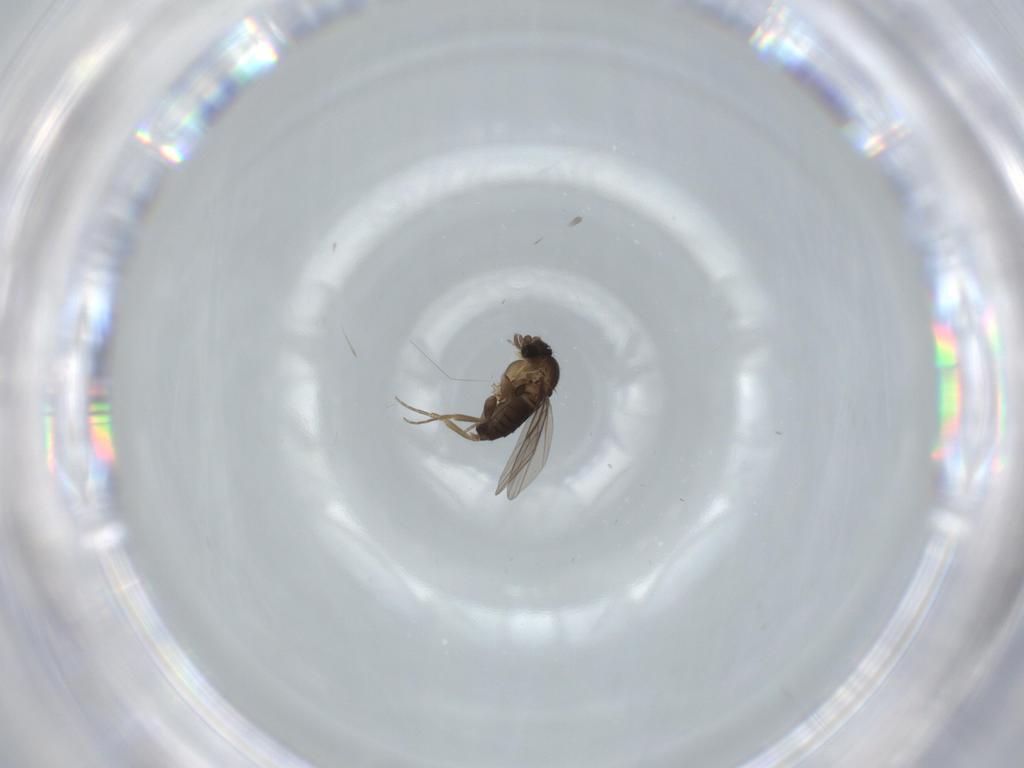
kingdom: Animalia
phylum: Arthropoda
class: Insecta
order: Diptera
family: Phoridae
